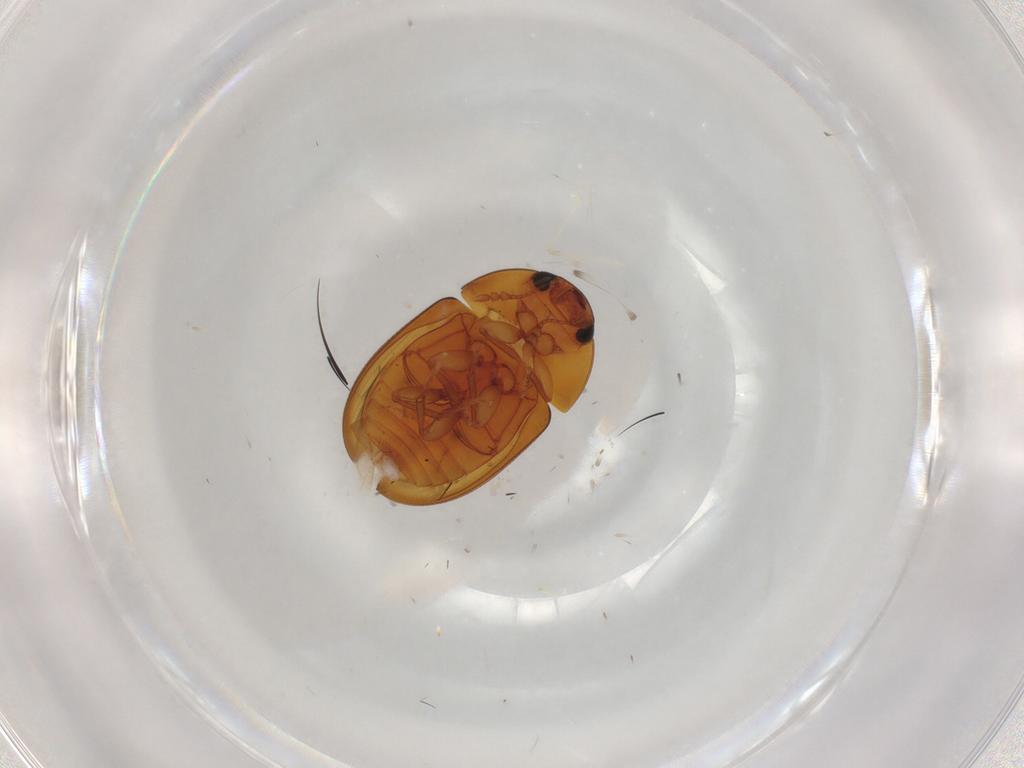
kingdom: Animalia
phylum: Arthropoda
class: Insecta
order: Coleoptera
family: Phalacridae
